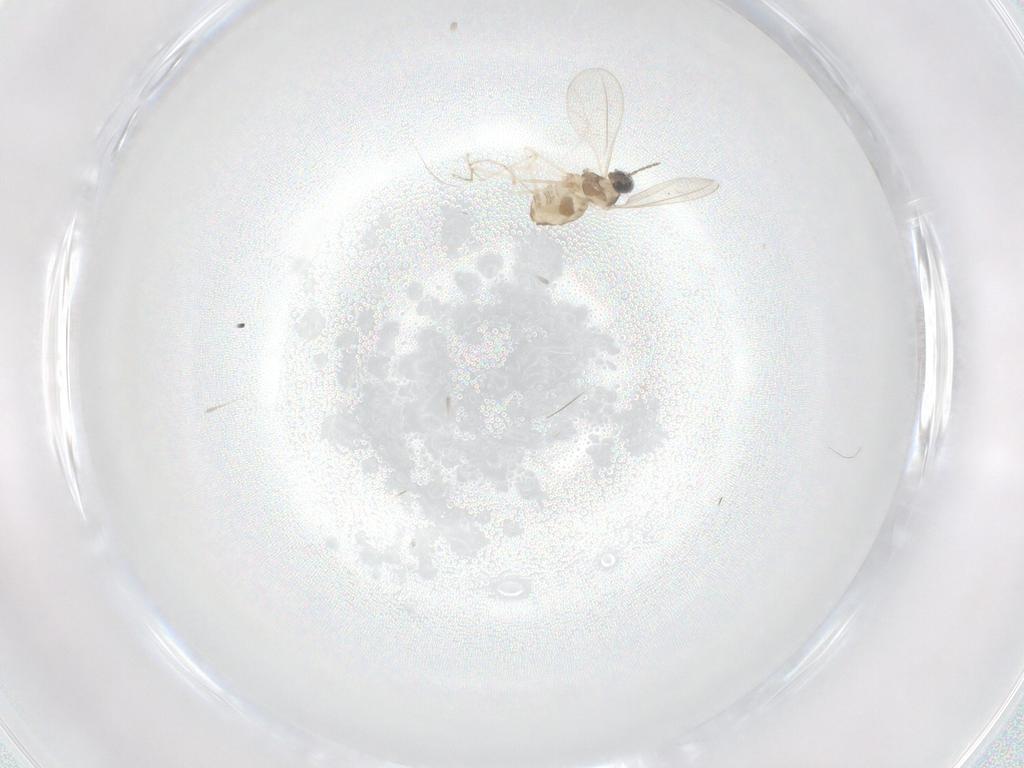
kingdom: Animalia
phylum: Arthropoda
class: Insecta
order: Diptera
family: Cecidomyiidae
